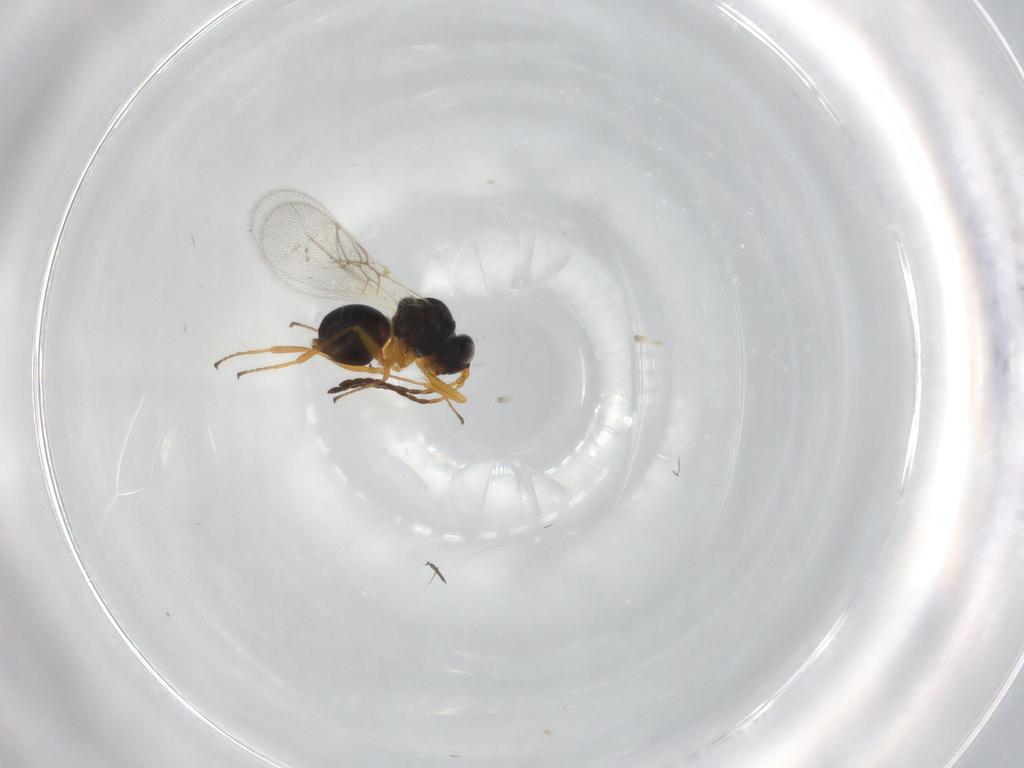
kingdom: Animalia
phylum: Arthropoda
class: Insecta
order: Hymenoptera
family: Figitidae
